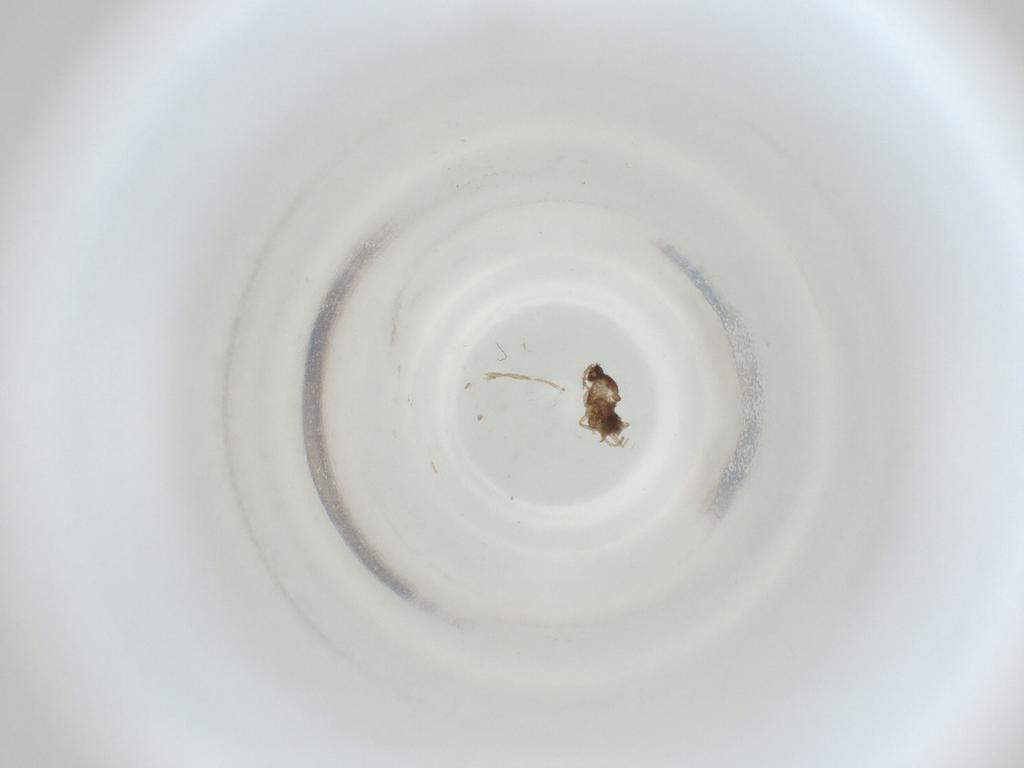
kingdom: Animalia
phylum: Arthropoda
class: Insecta
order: Diptera
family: Cecidomyiidae
